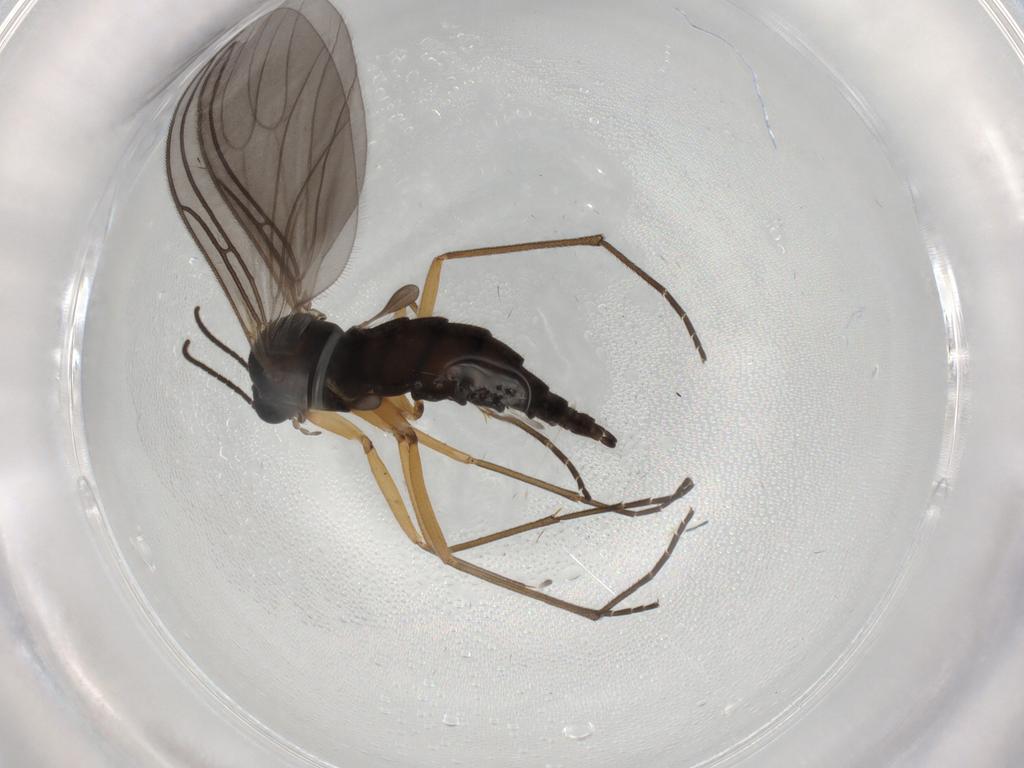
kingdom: Animalia
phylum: Arthropoda
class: Insecta
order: Diptera
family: Sciaridae
